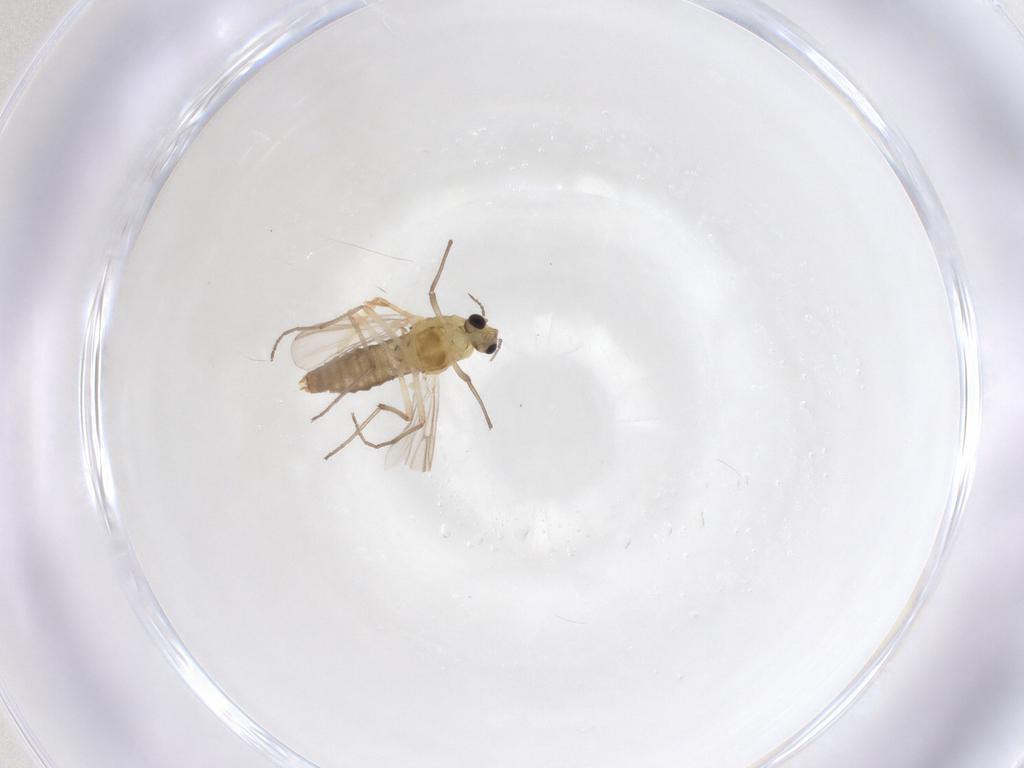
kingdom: Animalia
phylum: Arthropoda
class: Insecta
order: Diptera
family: Chironomidae
